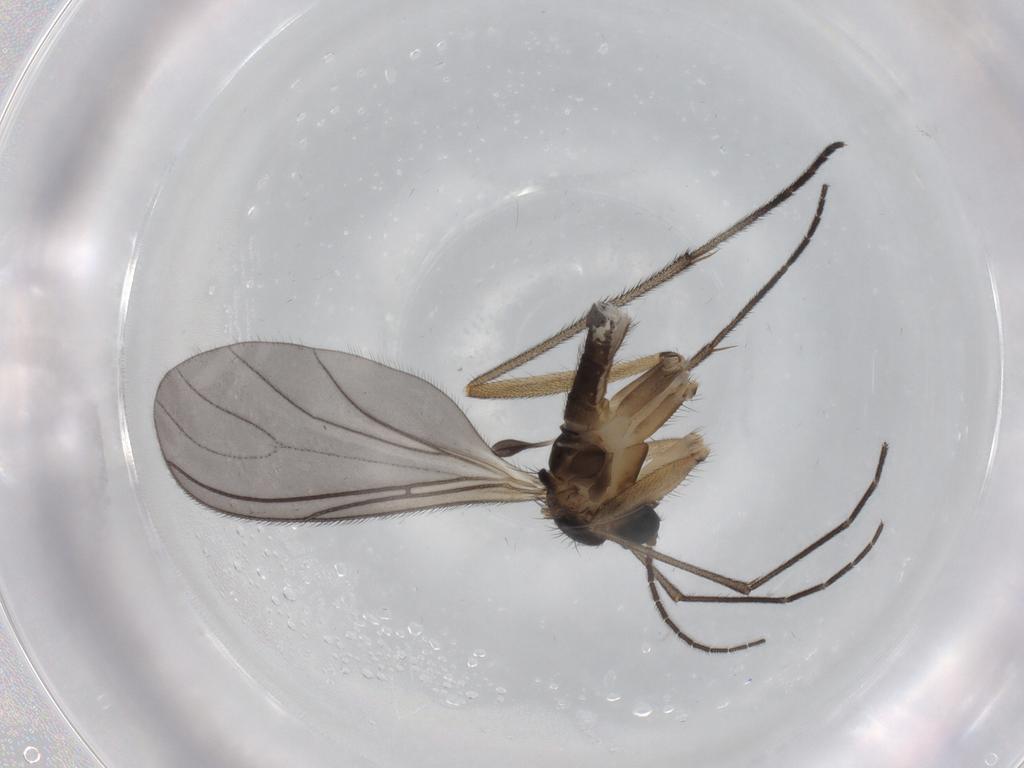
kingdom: Animalia
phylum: Arthropoda
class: Insecta
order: Diptera
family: Sciaridae
